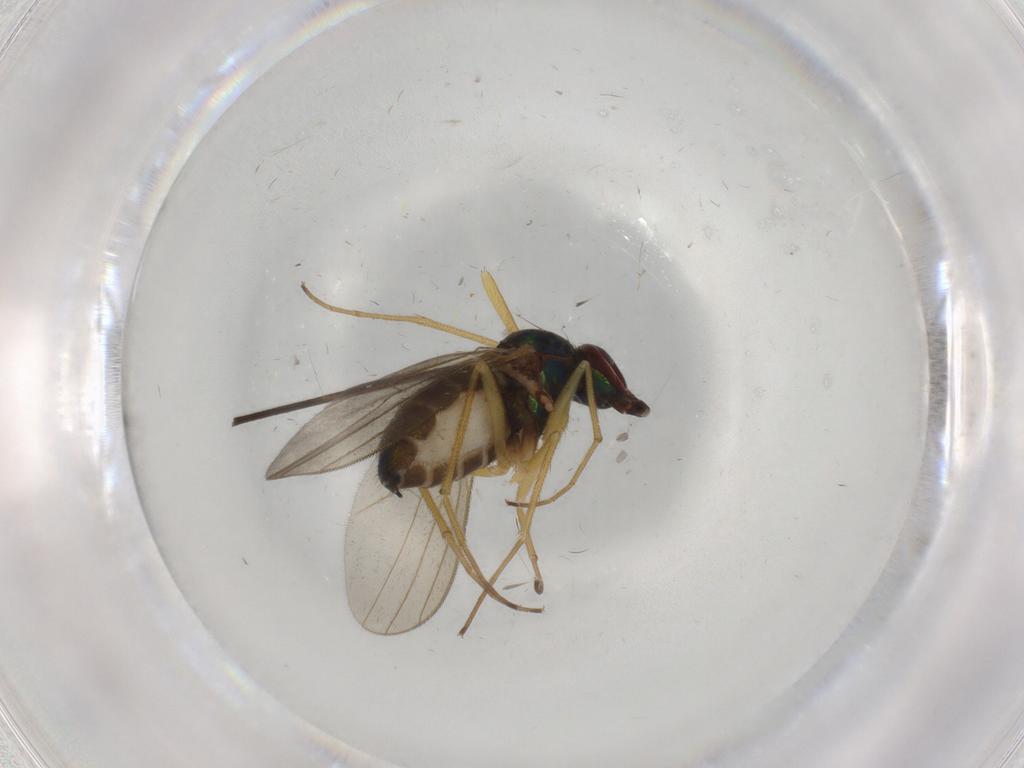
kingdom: Animalia
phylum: Arthropoda
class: Insecta
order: Diptera
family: Dolichopodidae
